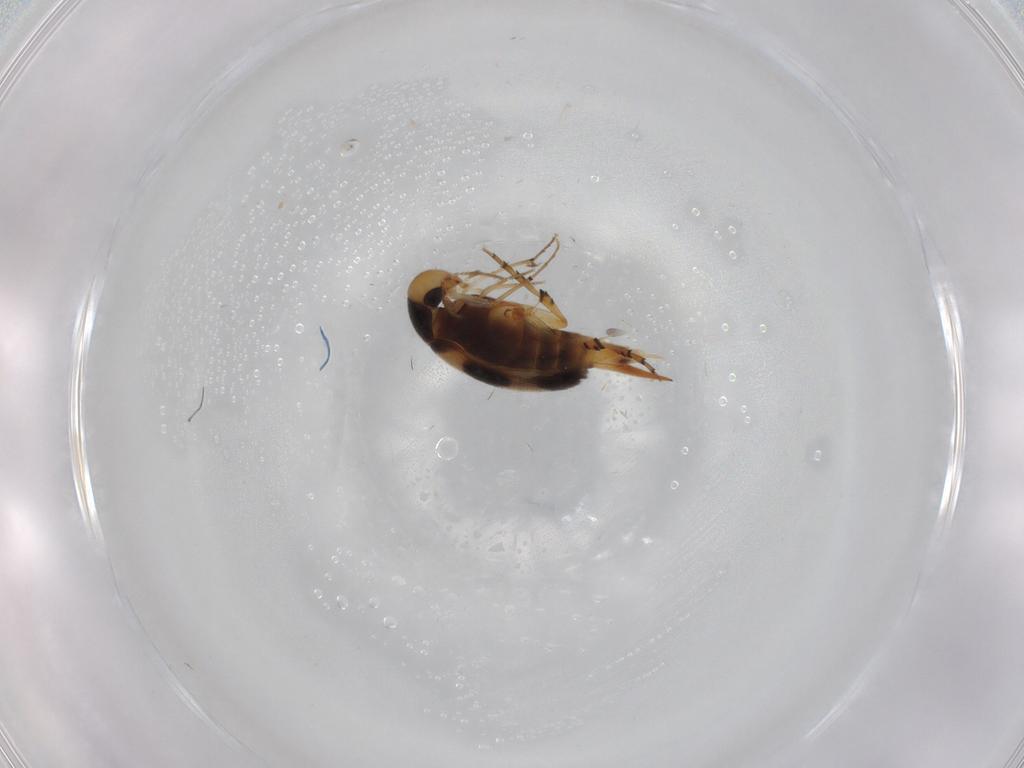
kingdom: Animalia
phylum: Arthropoda
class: Insecta
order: Coleoptera
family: Mordellidae
